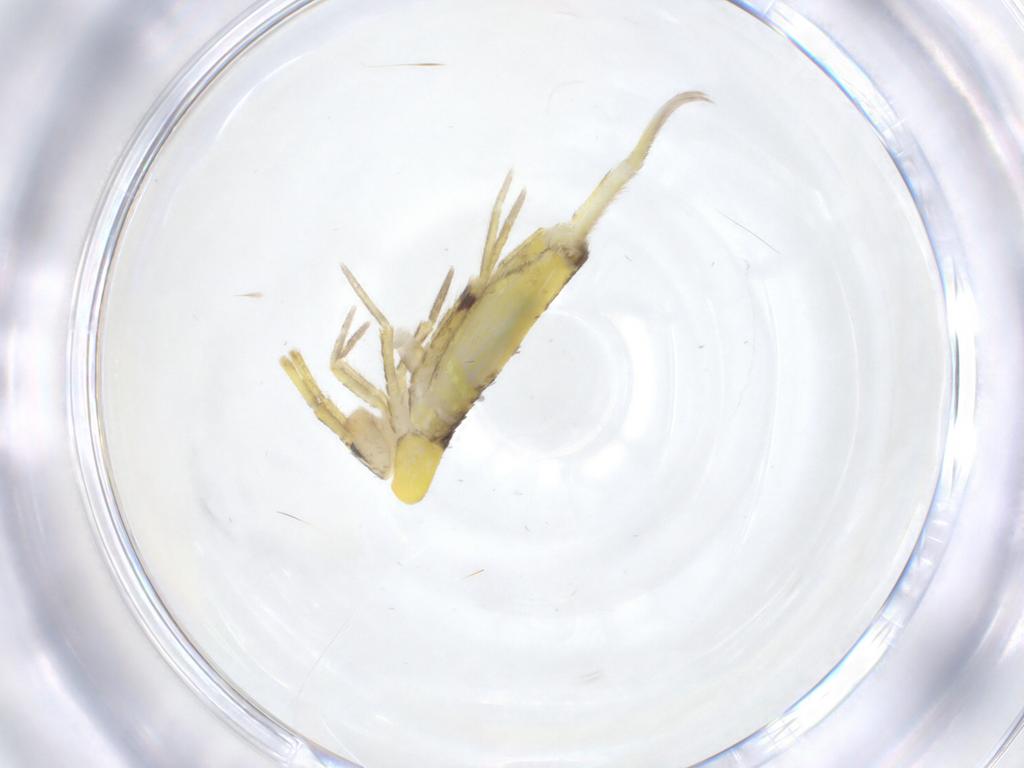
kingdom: Animalia
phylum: Arthropoda
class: Collembola
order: Entomobryomorpha
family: Entomobryidae
